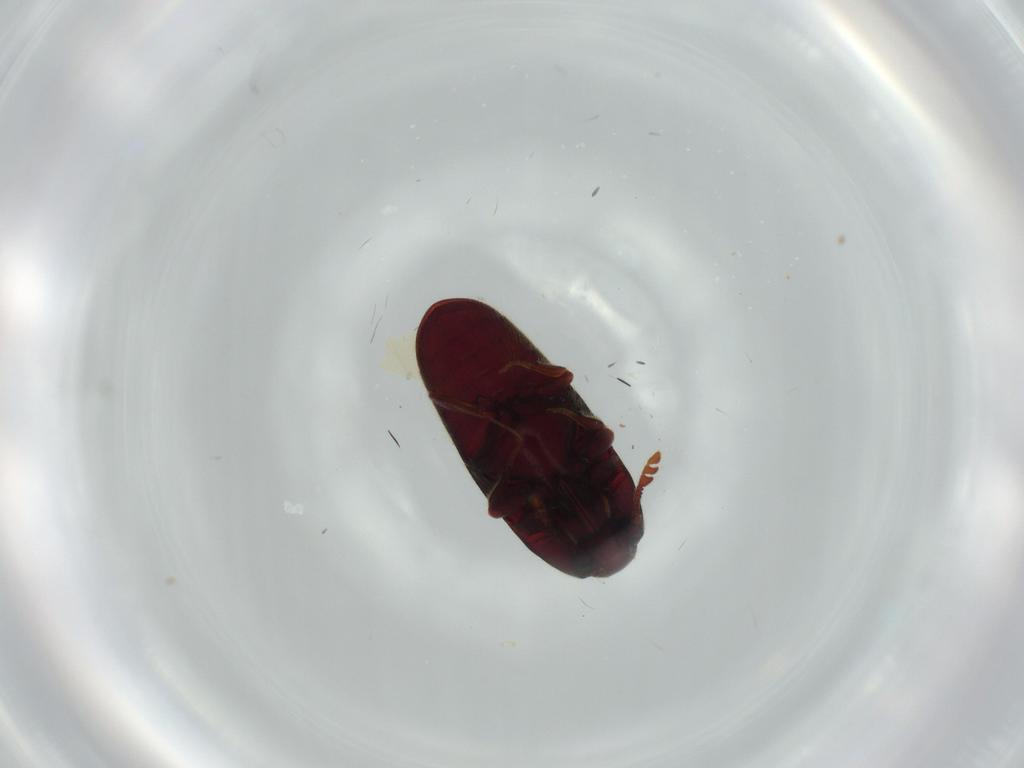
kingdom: Animalia
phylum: Arthropoda
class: Insecta
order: Coleoptera
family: Throscidae
